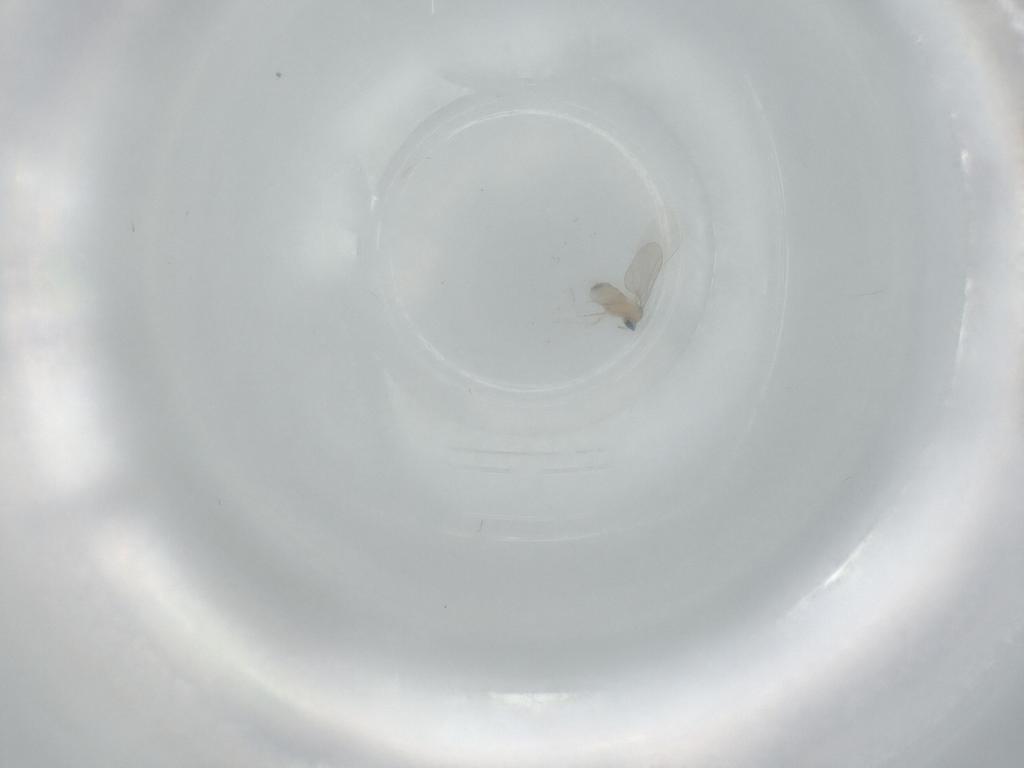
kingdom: Animalia
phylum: Arthropoda
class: Insecta
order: Diptera
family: Cecidomyiidae
